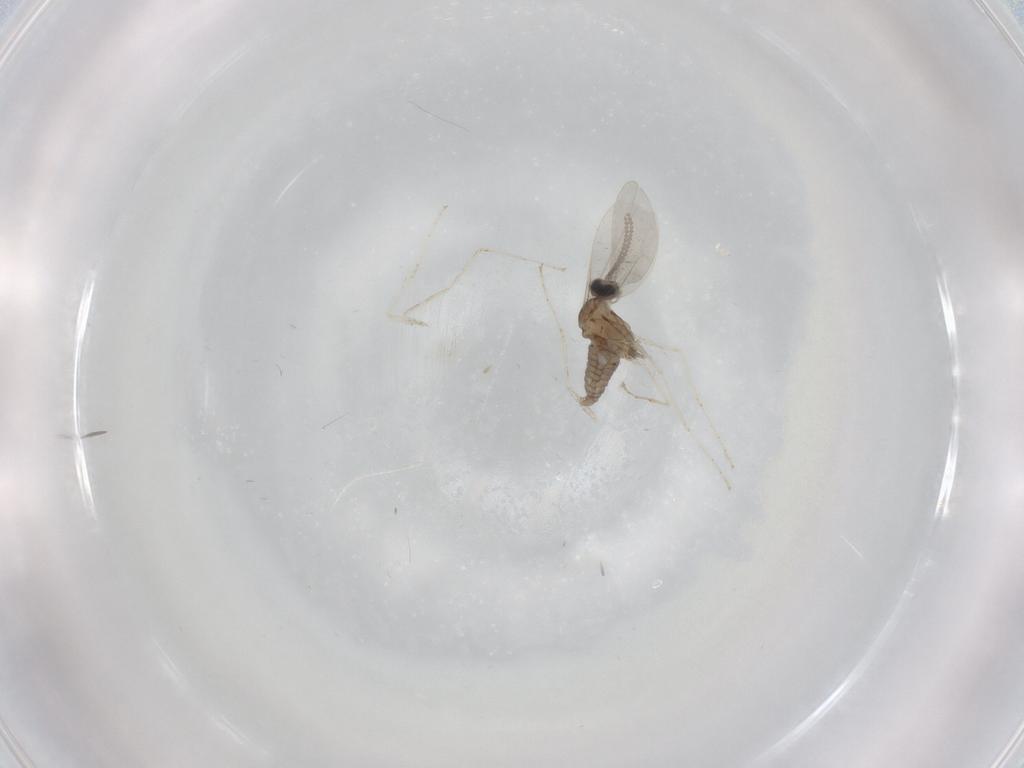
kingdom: Animalia
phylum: Arthropoda
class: Insecta
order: Diptera
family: Cecidomyiidae
